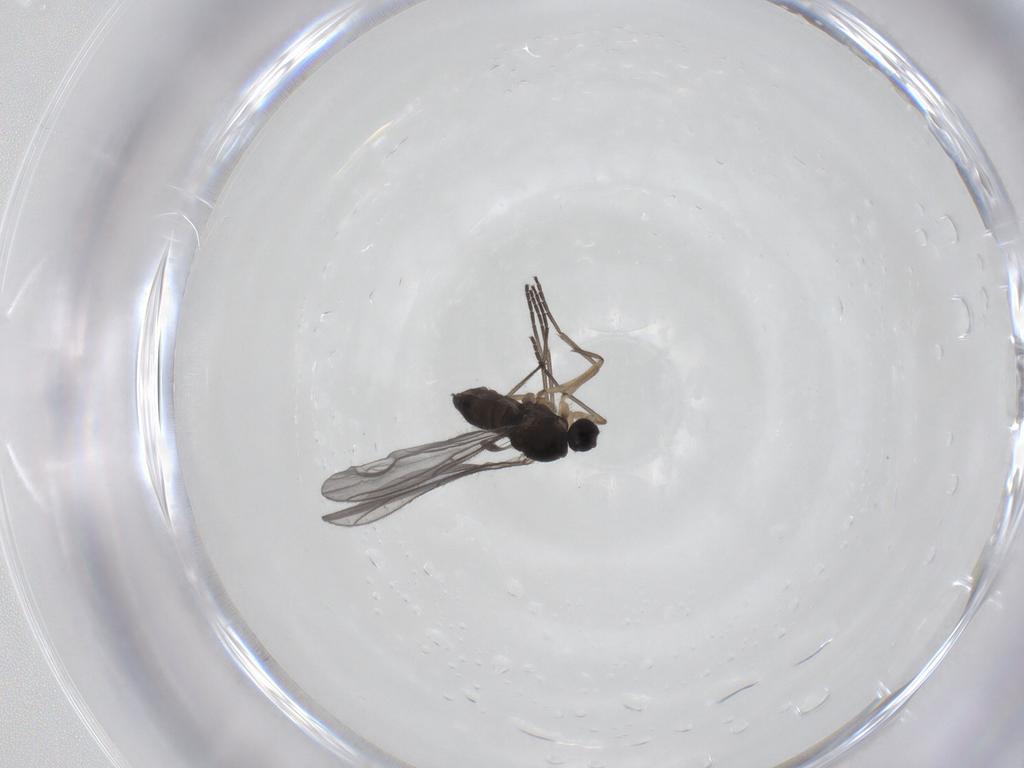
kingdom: Animalia
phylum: Arthropoda
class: Insecta
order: Diptera
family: Sciaridae
